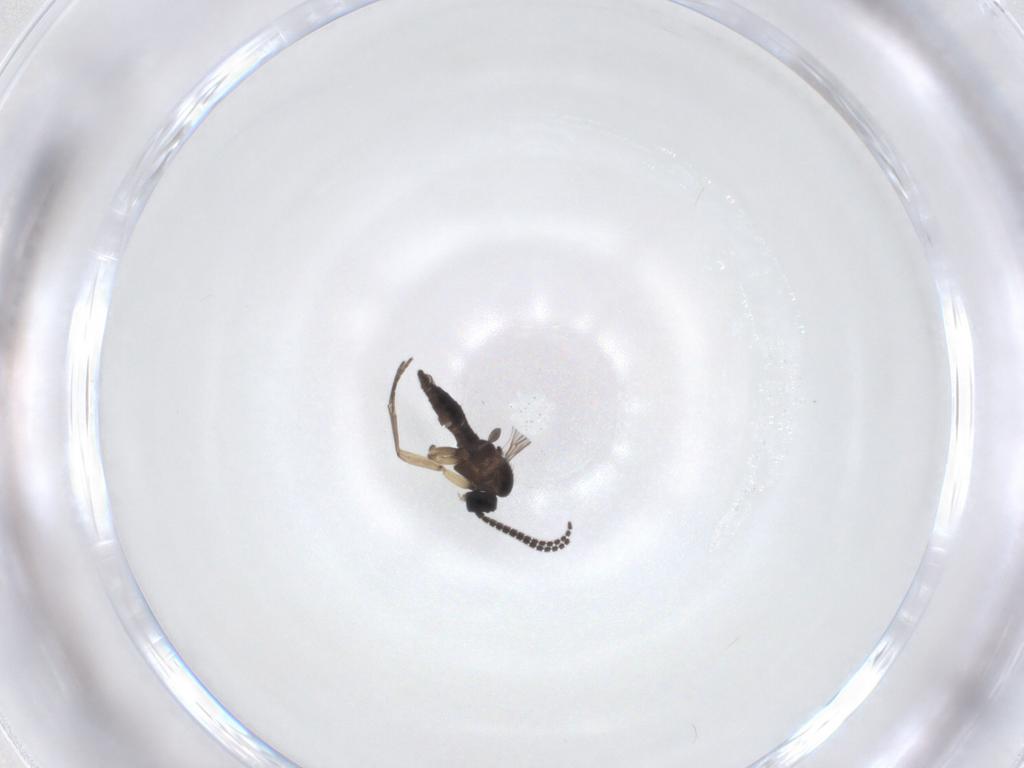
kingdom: Animalia
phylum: Arthropoda
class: Insecta
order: Diptera
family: Sciaridae
